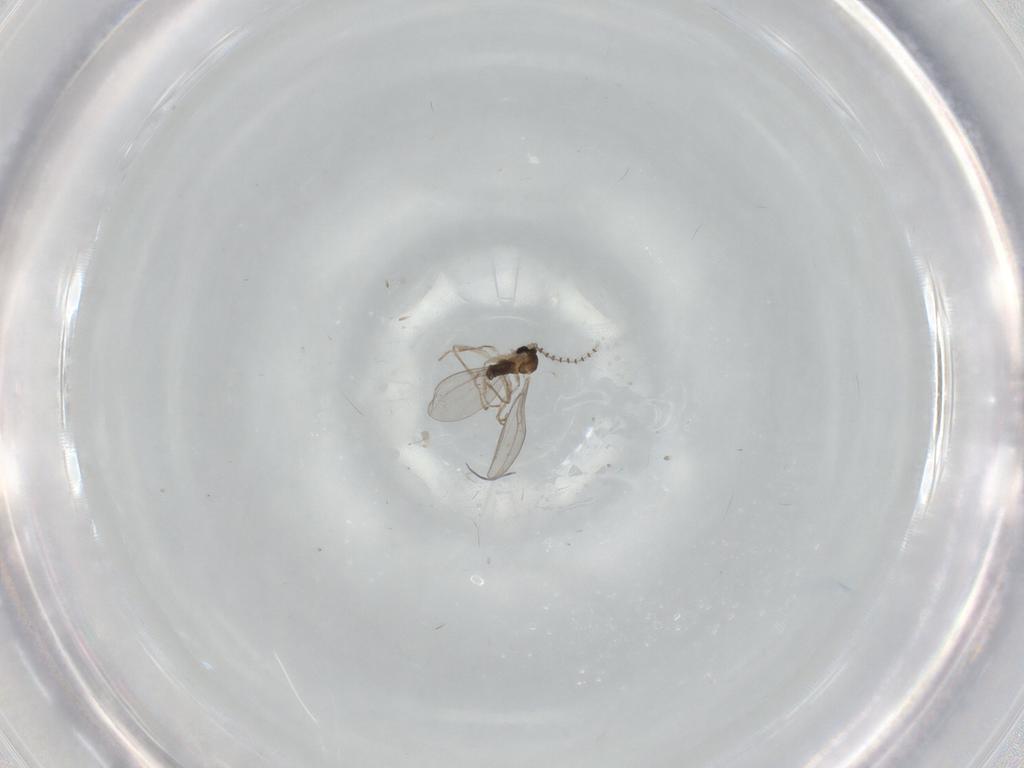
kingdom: Animalia
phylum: Arthropoda
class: Insecta
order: Diptera
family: Cecidomyiidae
